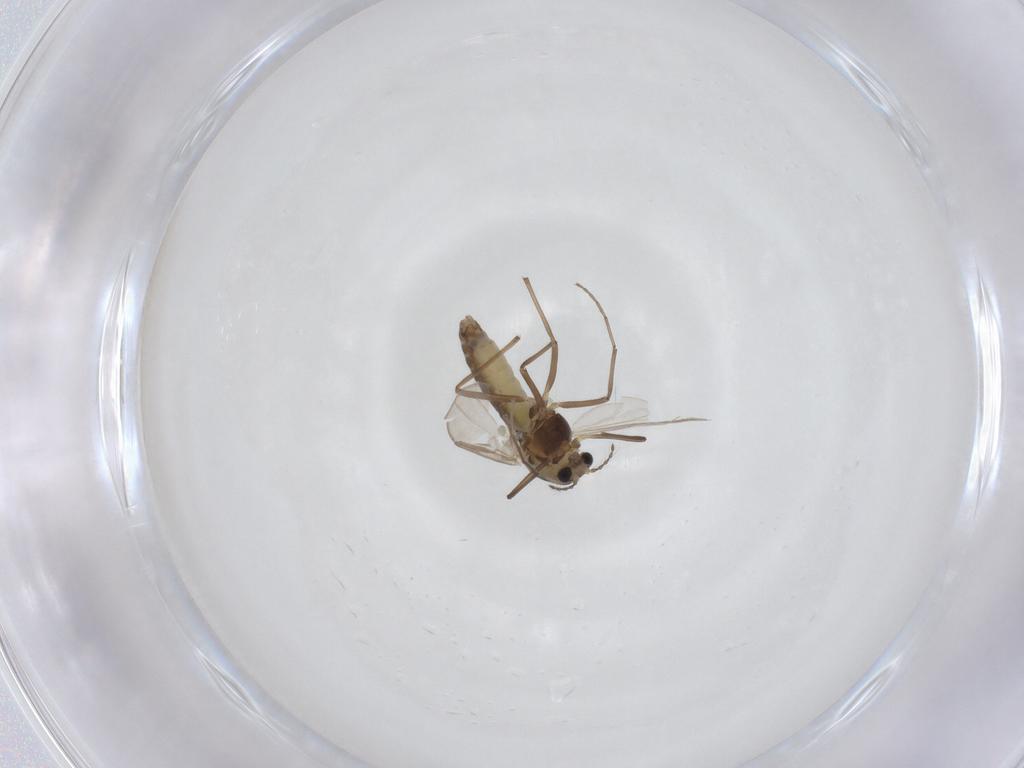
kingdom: Animalia
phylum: Arthropoda
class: Insecta
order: Diptera
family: Chironomidae
